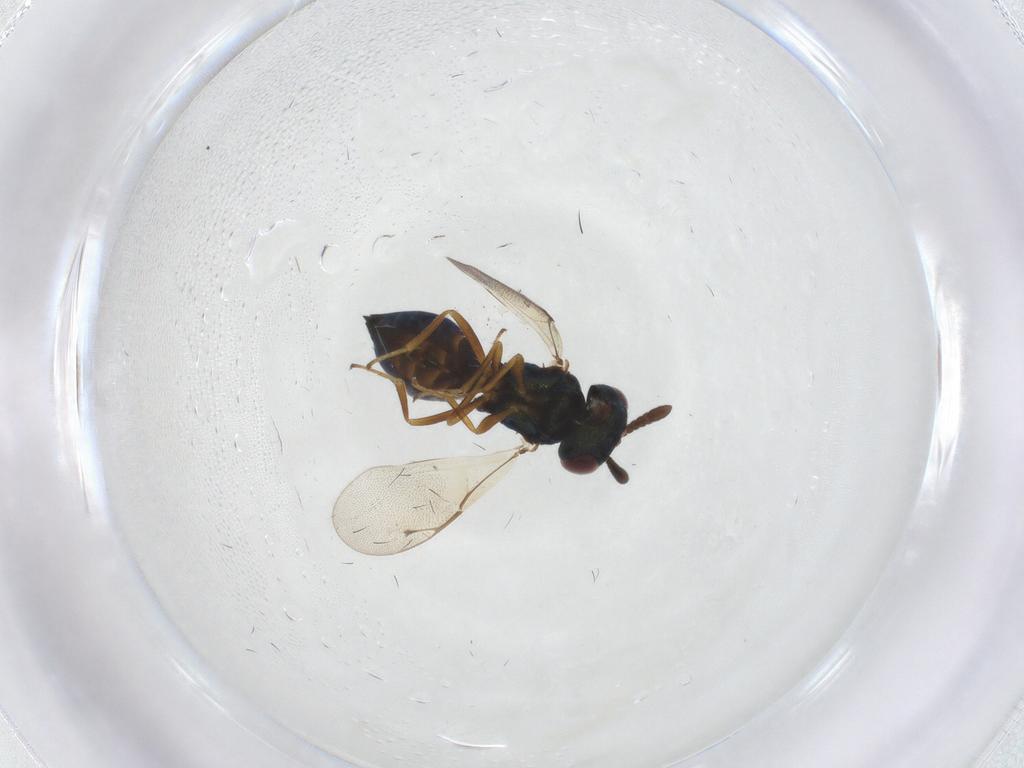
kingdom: Animalia
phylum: Arthropoda
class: Insecta
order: Hymenoptera
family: Pteromalidae
